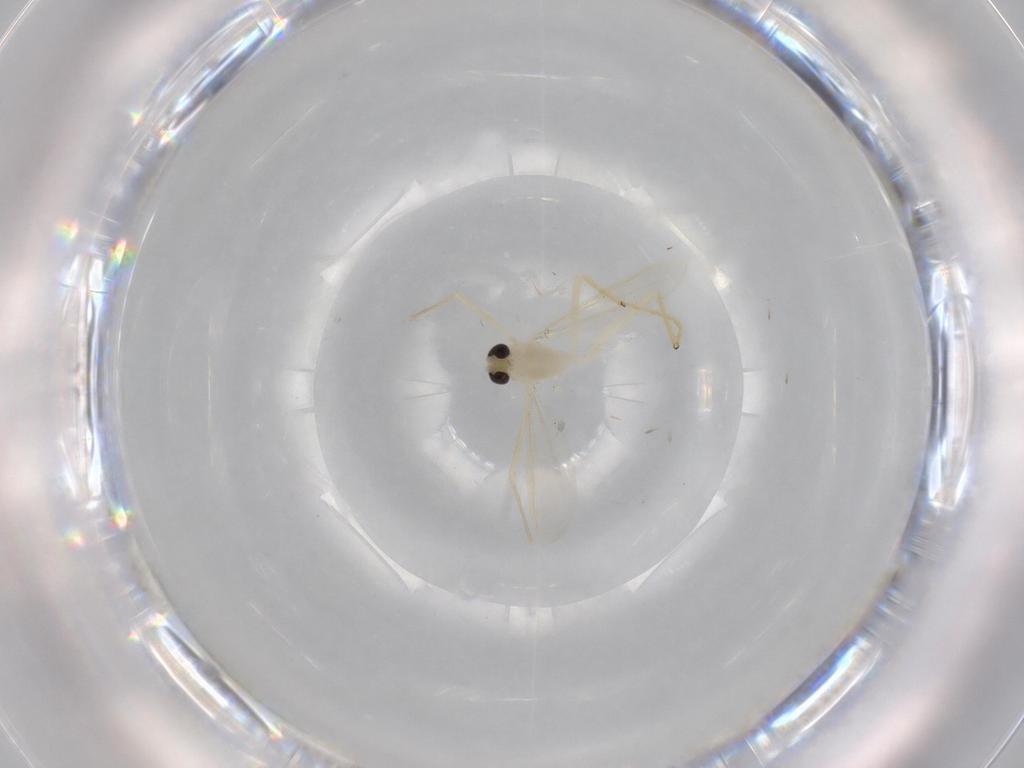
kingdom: Animalia
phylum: Arthropoda
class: Insecta
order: Diptera
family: Chironomidae
